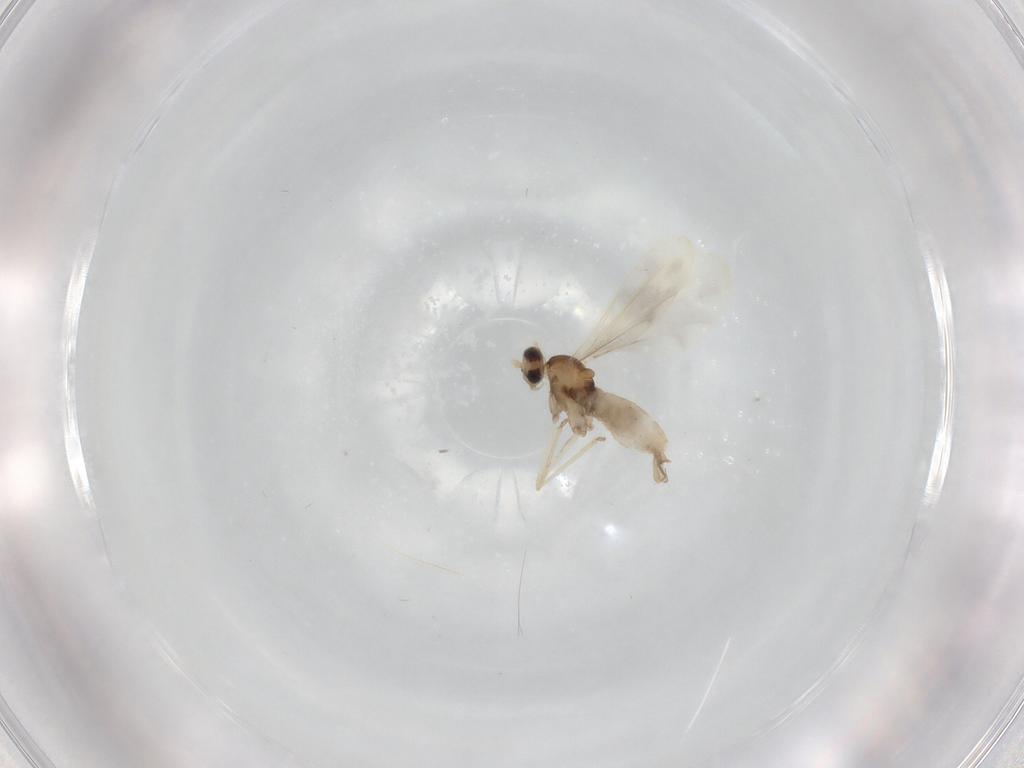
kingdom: Animalia
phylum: Arthropoda
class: Insecta
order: Diptera
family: Cecidomyiidae
